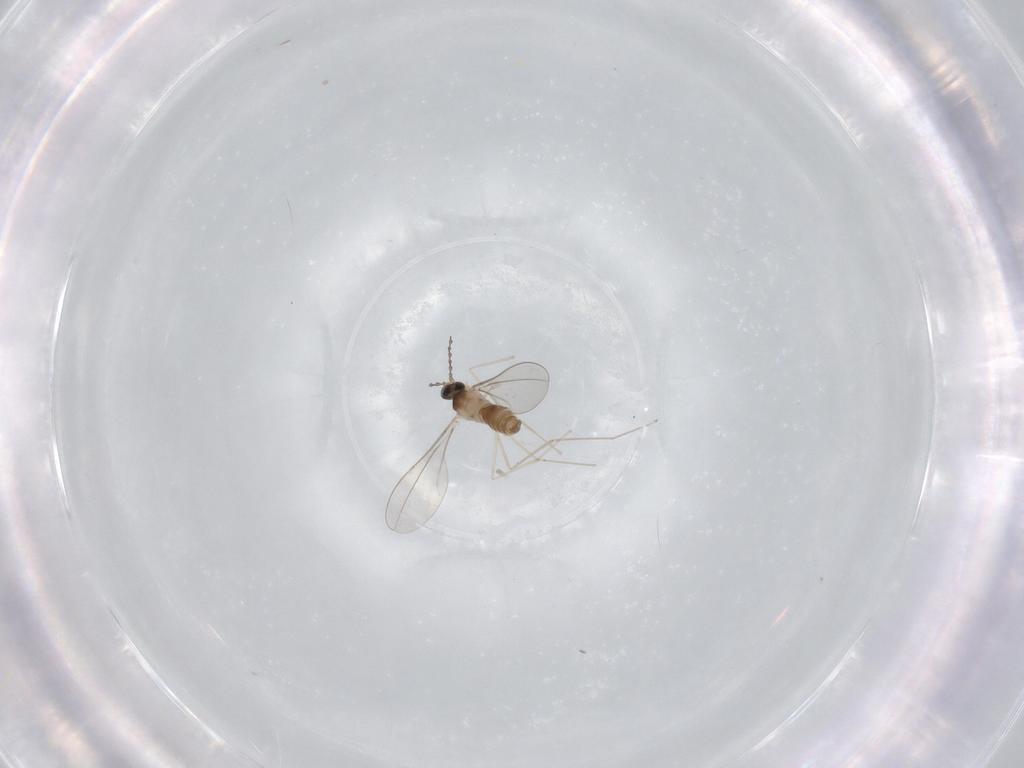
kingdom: Animalia
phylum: Arthropoda
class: Insecta
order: Diptera
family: Cecidomyiidae
